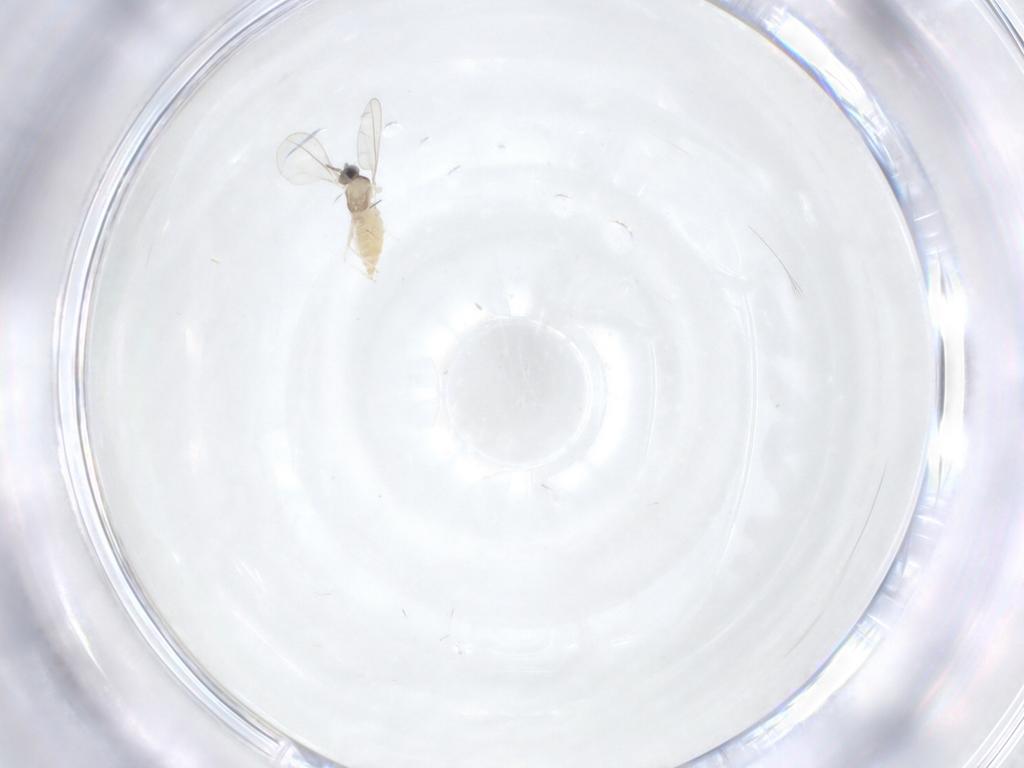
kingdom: Animalia
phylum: Arthropoda
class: Insecta
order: Diptera
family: Cecidomyiidae
